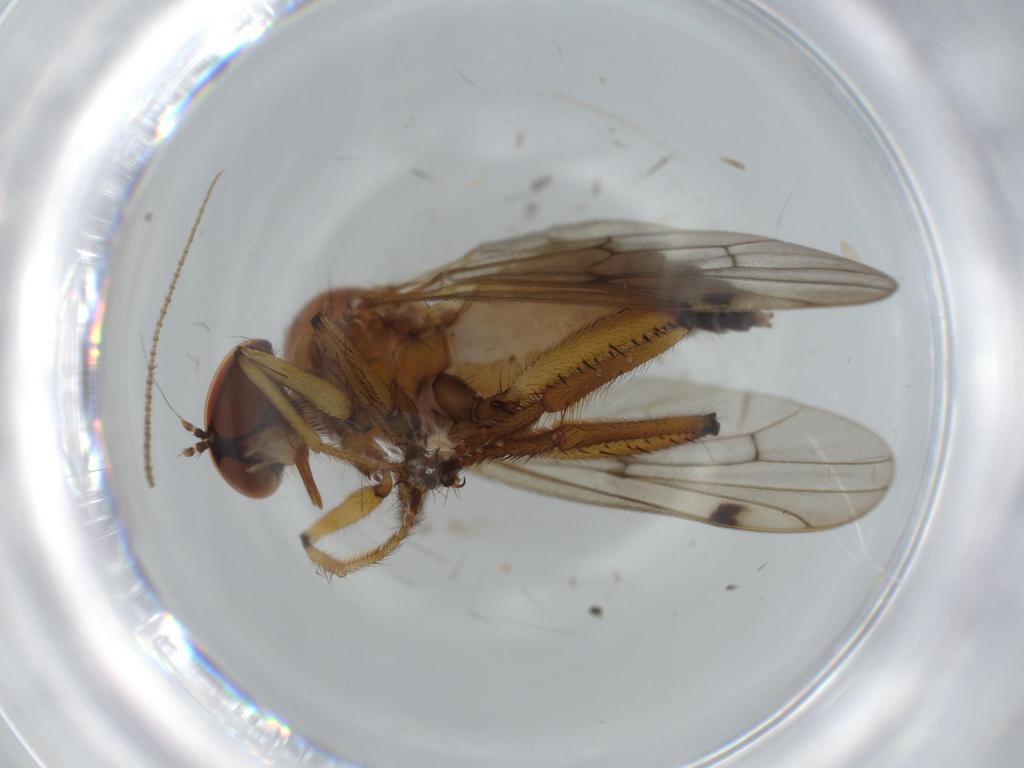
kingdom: Animalia
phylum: Arthropoda
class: Insecta
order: Diptera
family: Hybotidae
